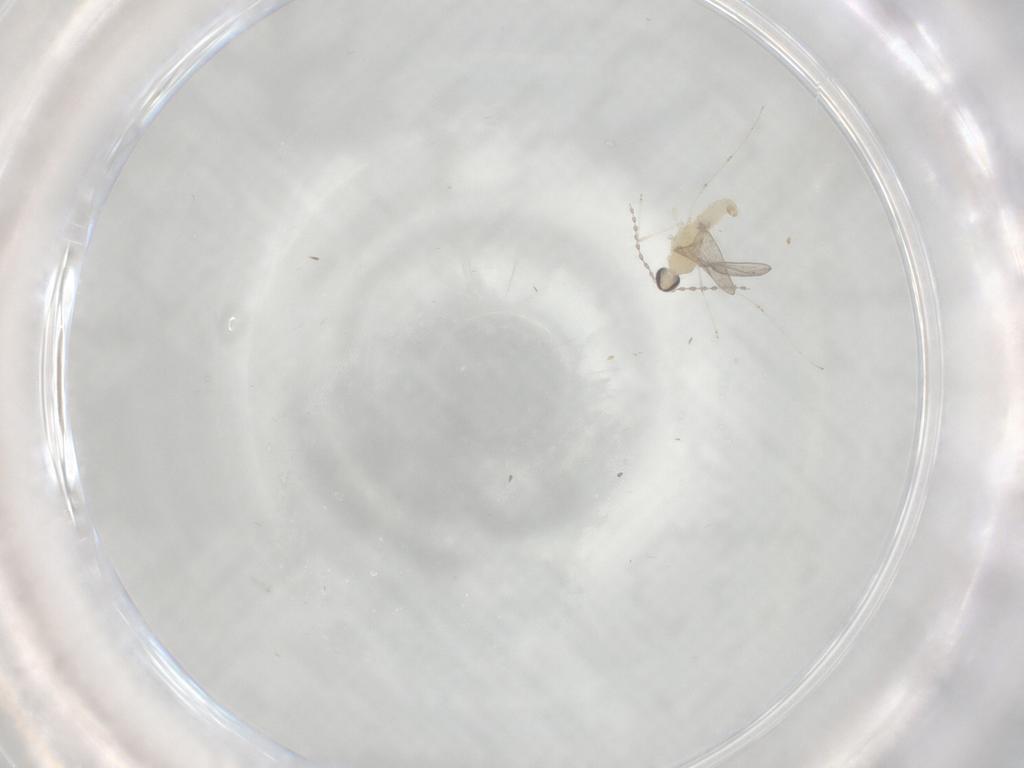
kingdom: Animalia
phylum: Arthropoda
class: Insecta
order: Diptera
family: Cecidomyiidae
